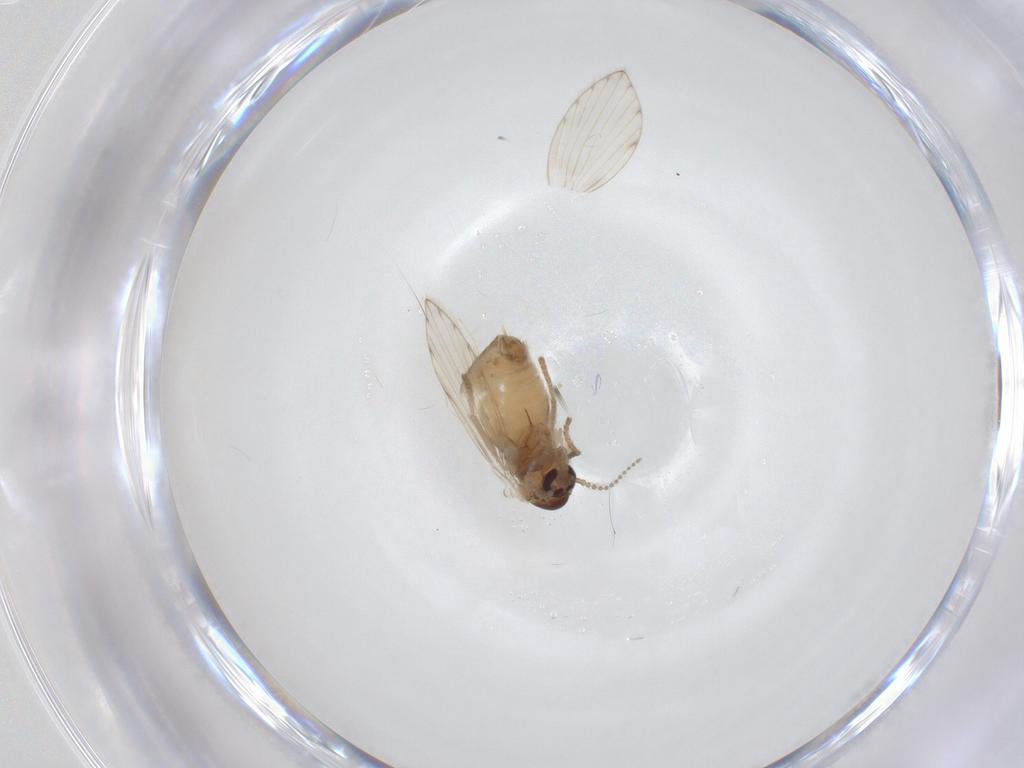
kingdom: Animalia
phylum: Arthropoda
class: Insecta
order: Diptera
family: Psychodidae
